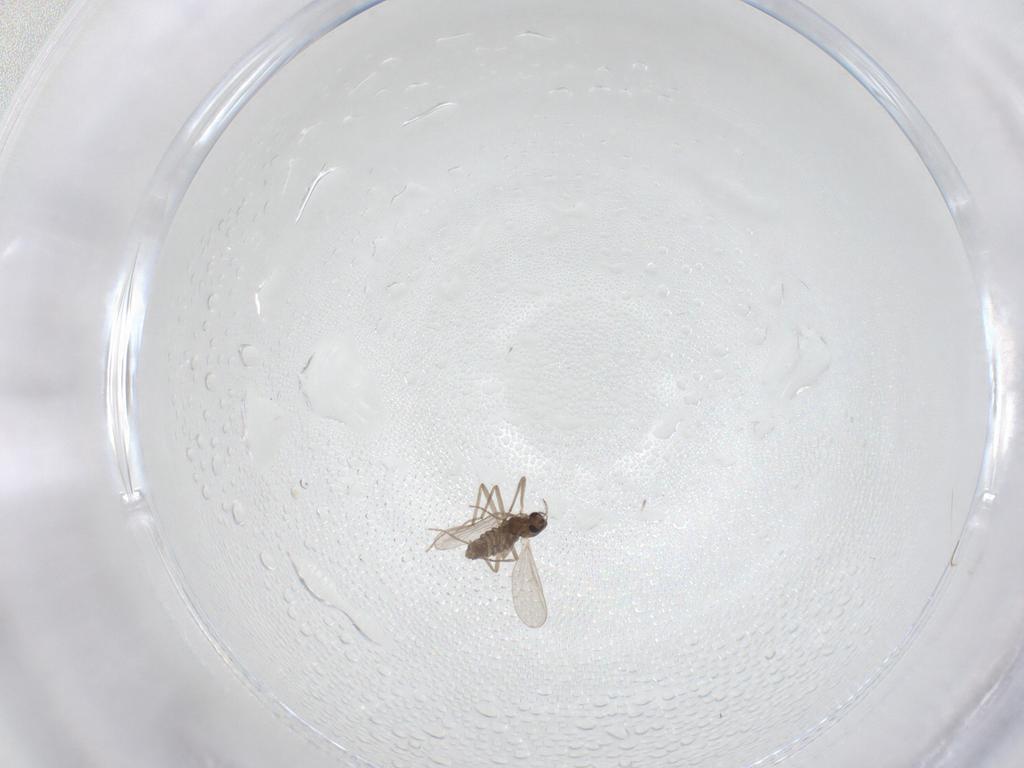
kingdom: Animalia
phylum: Arthropoda
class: Insecta
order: Diptera
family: Chironomidae
